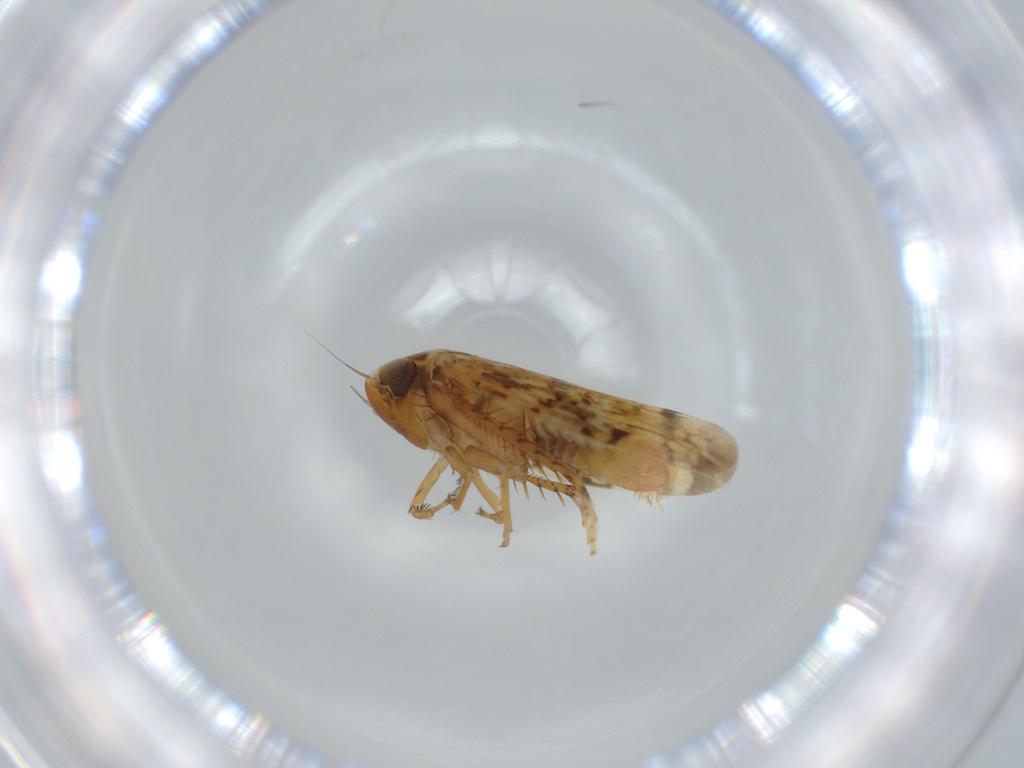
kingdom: Animalia
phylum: Arthropoda
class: Insecta
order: Hemiptera
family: Cicadellidae
